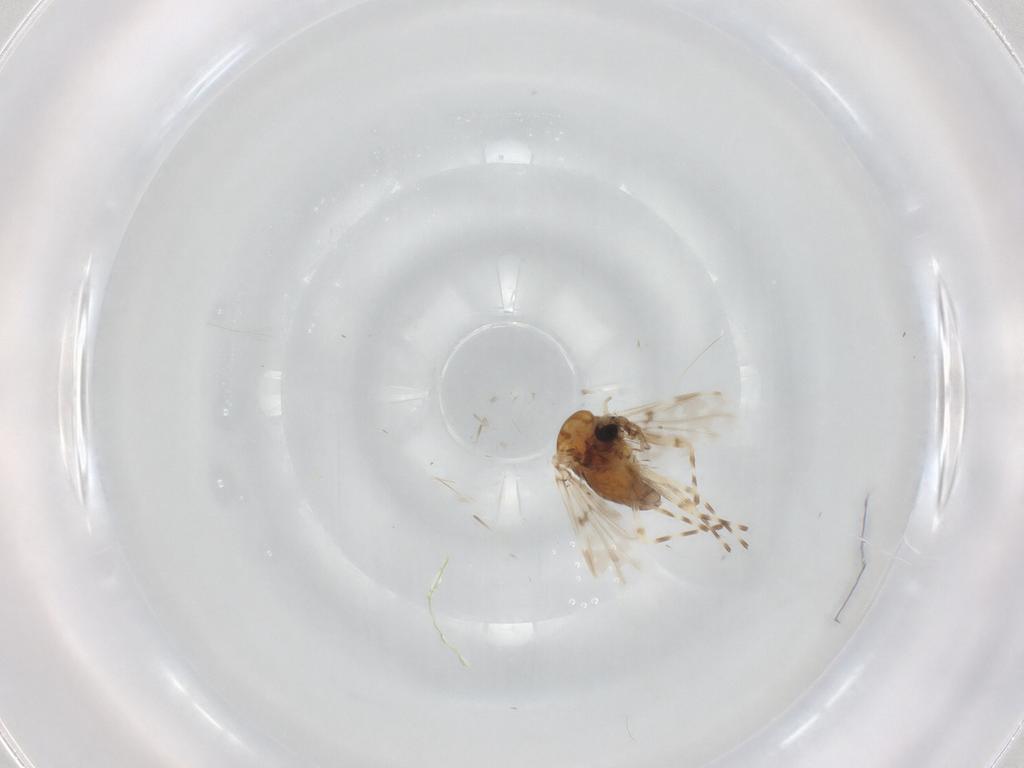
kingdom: Animalia
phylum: Arthropoda
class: Insecta
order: Diptera
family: Chironomidae
